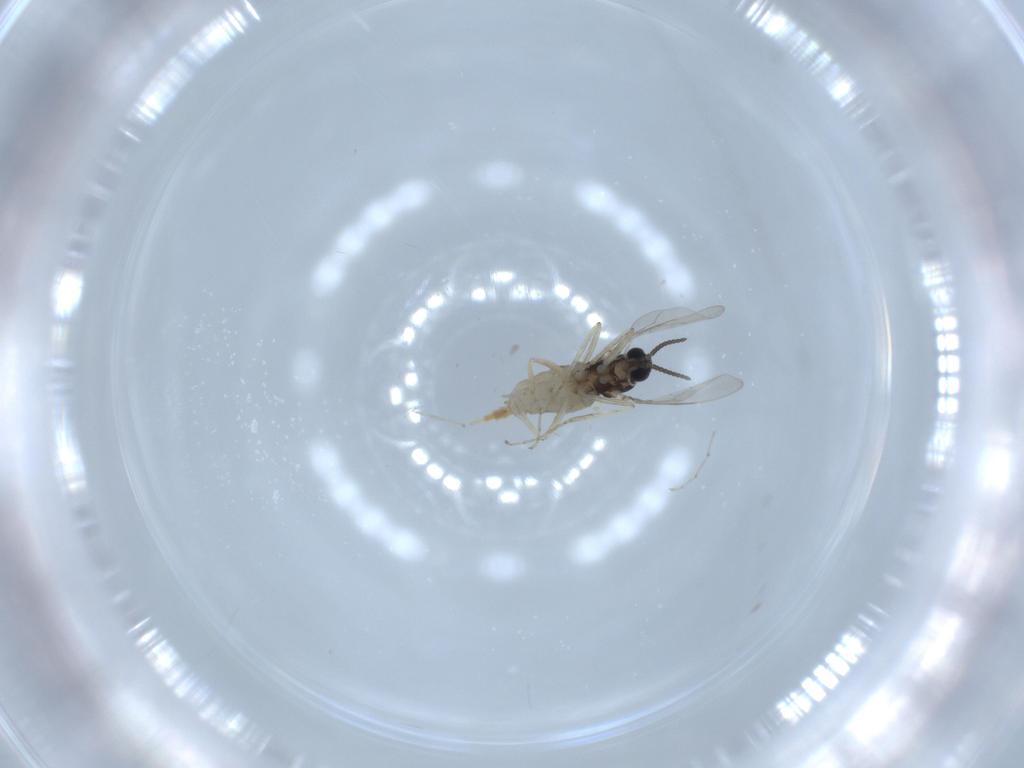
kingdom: Animalia
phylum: Arthropoda
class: Insecta
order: Diptera
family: Cecidomyiidae
